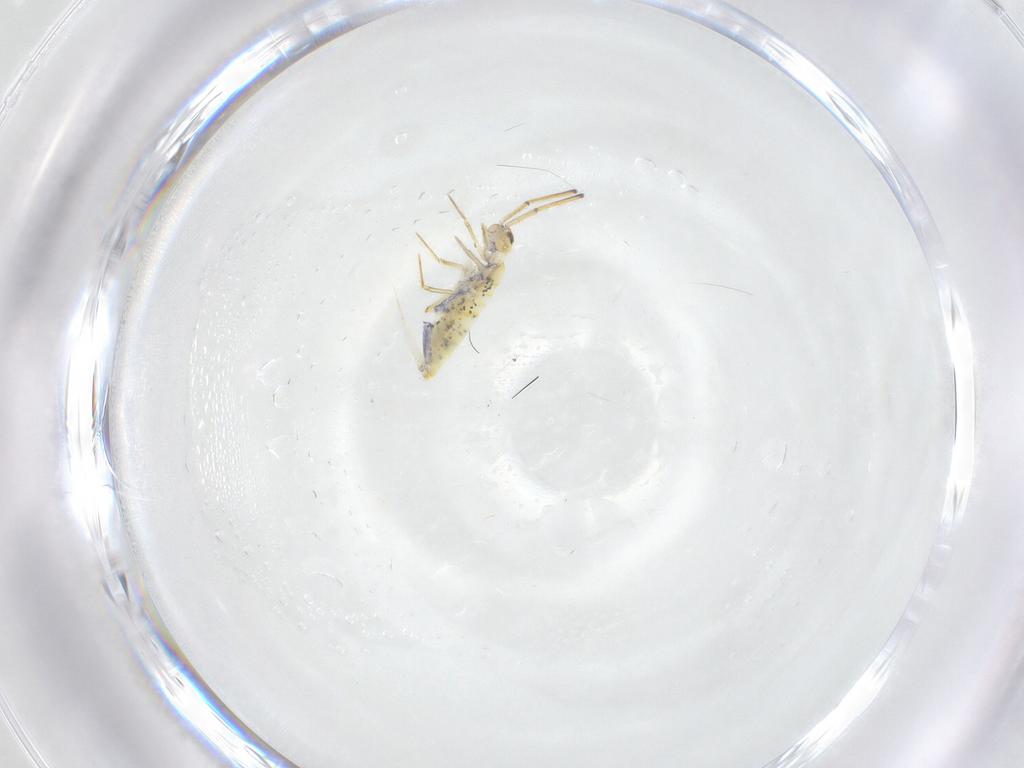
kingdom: Animalia
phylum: Arthropoda
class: Collembola
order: Entomobryomorpha
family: Entomobryidae
